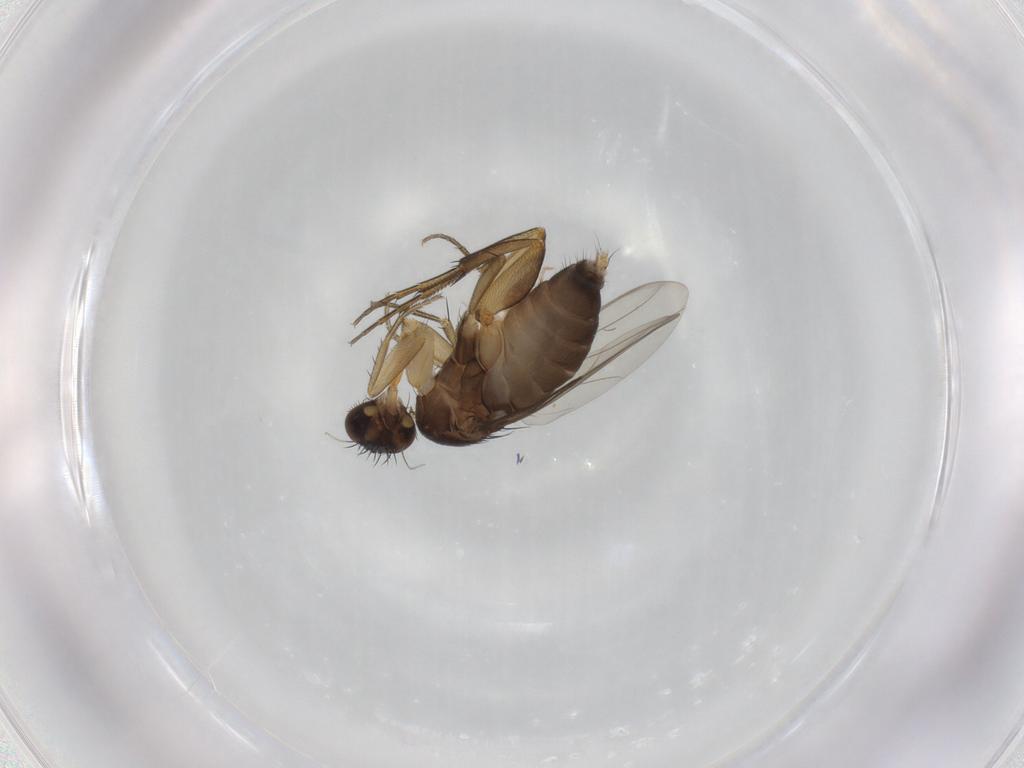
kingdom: Animalia
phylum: Arthropoda
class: Insecta
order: Diptera
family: Phoridae
